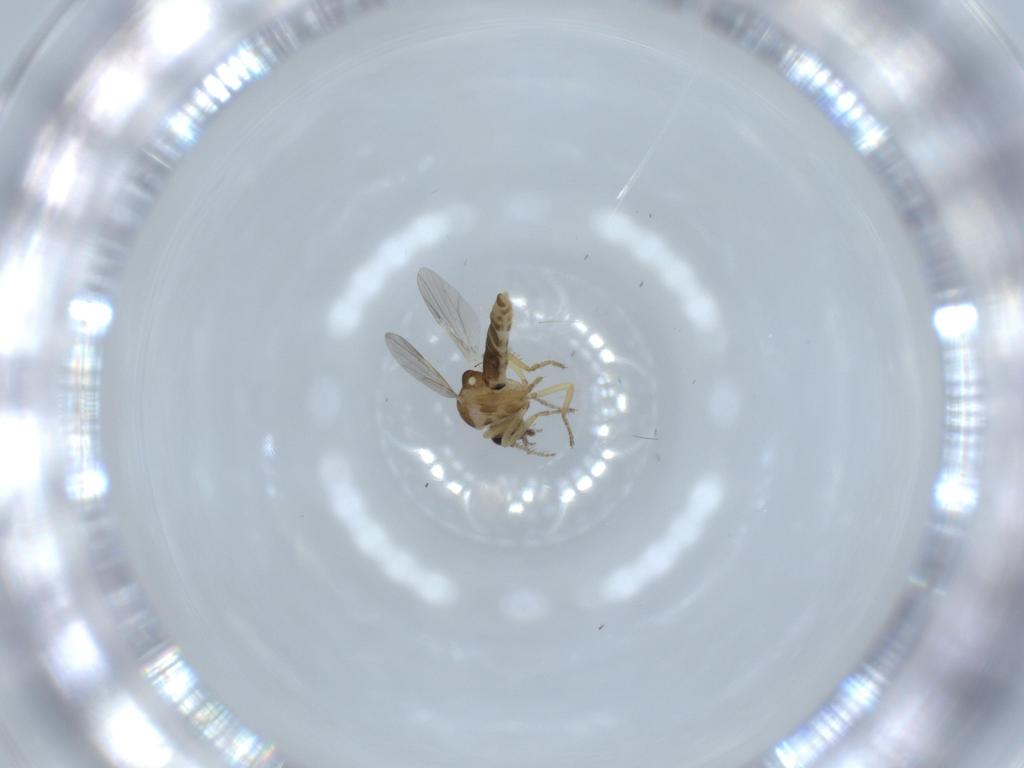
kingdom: Animalia
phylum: Arthropoda
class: Insecta
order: Diptera
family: Ceratopogonidae
